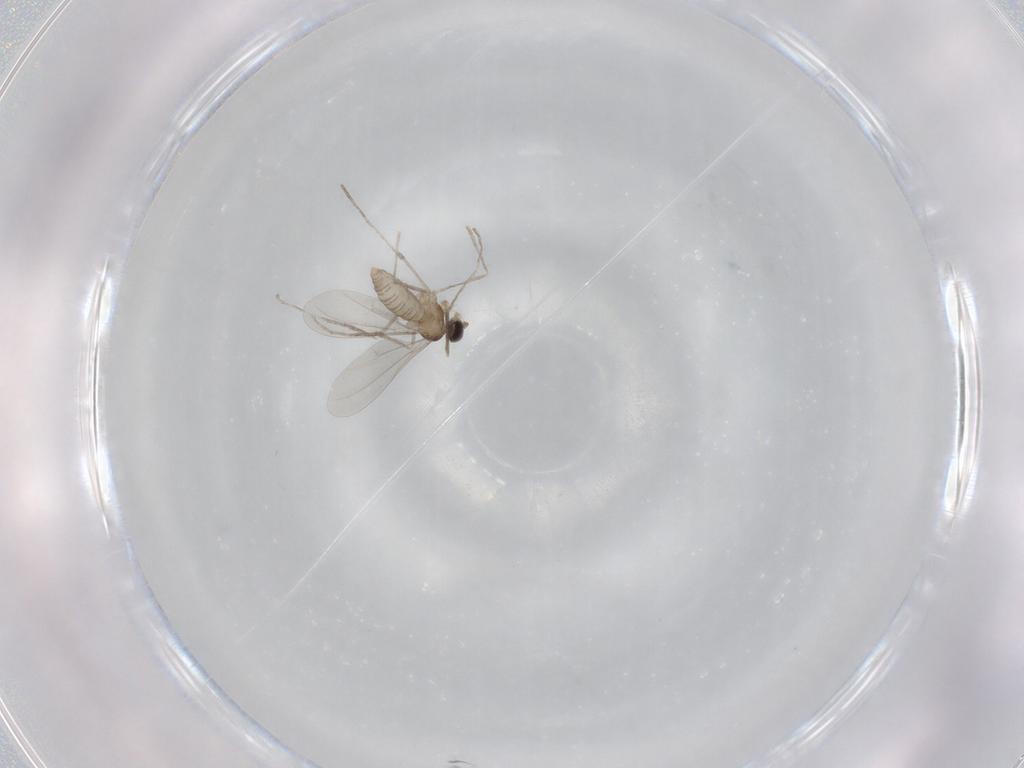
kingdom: Animalia
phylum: Arthropoda
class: Insecta
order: Diptera
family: Cecidomyiidae
